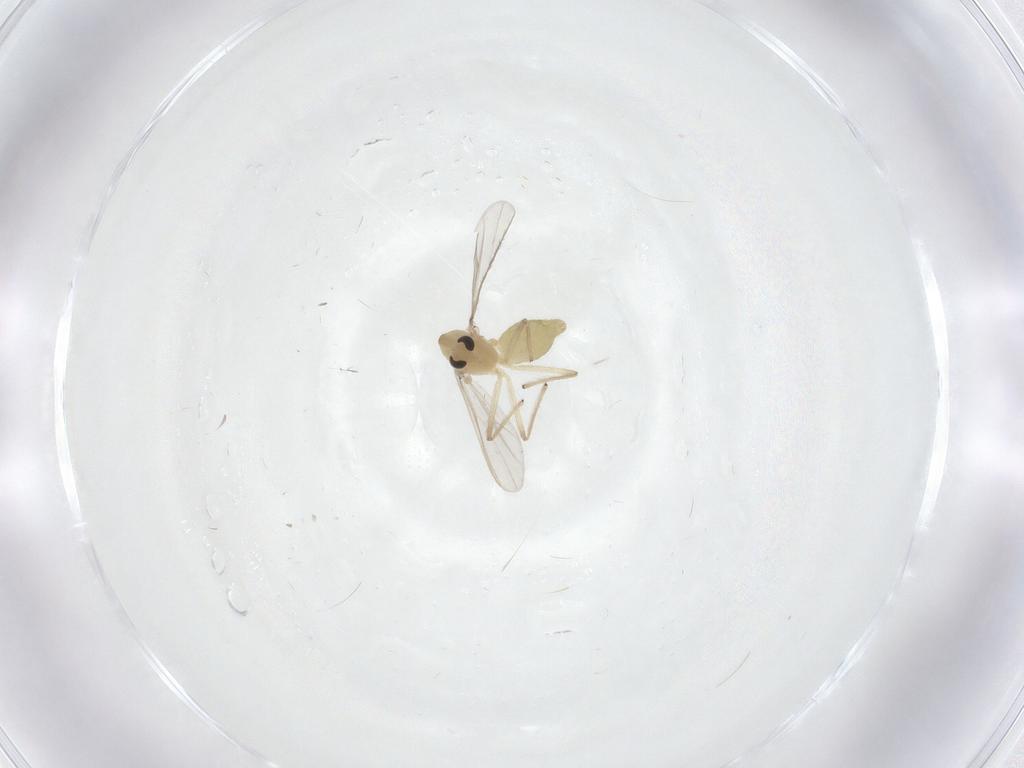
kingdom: Animalia
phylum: Arthropoda
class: Insecta
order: Diptera
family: Chironomidae
